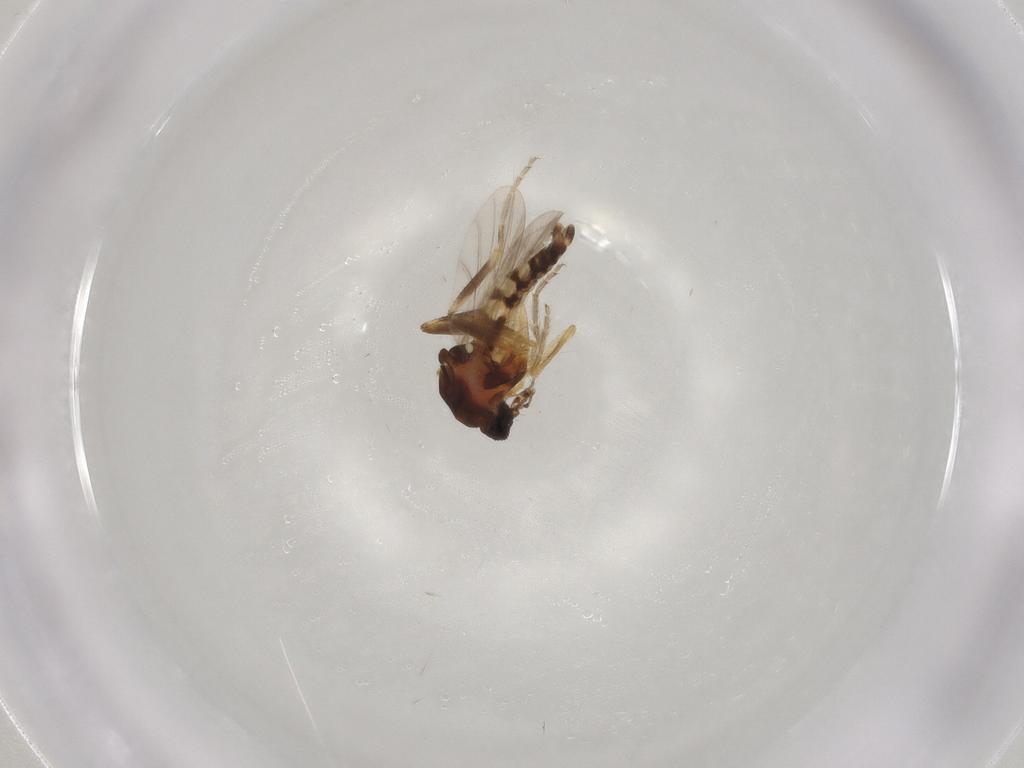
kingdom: Animalia
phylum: Arthropoda
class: Insecta
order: Diptera
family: Ceratopogonidae
